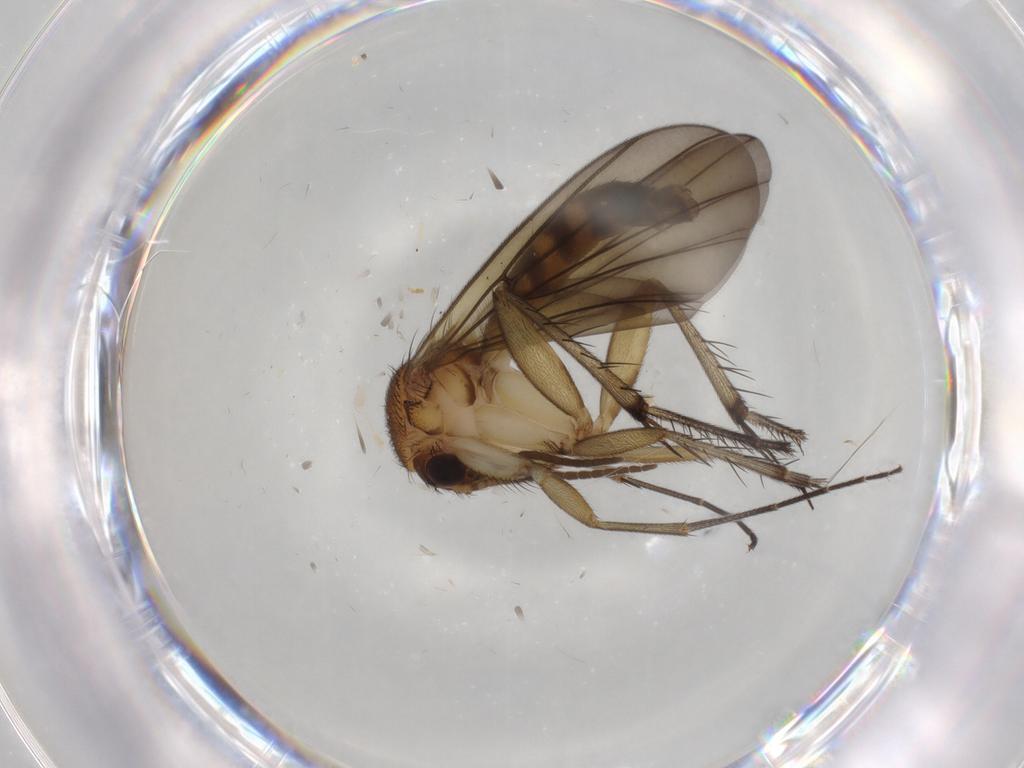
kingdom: Animalia
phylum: Arthropoda
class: Insecta
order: Diptera
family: Mycetophilidae
